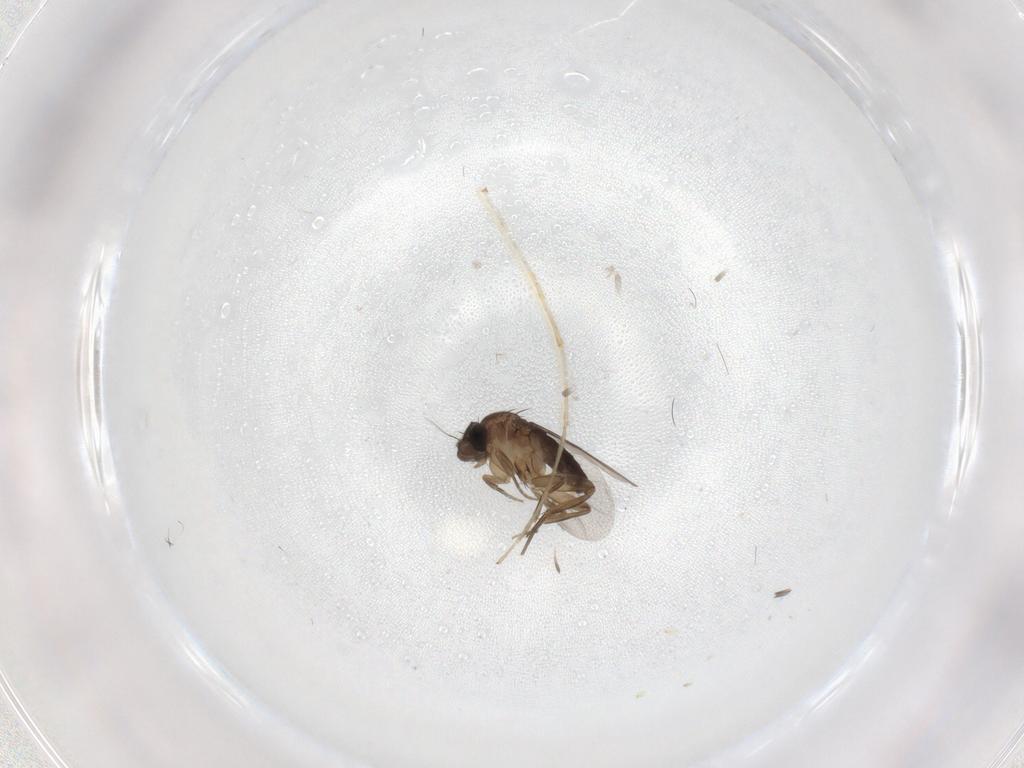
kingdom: Animalia
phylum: Arthropoda
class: Insecta
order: Diptera
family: Phoridae
